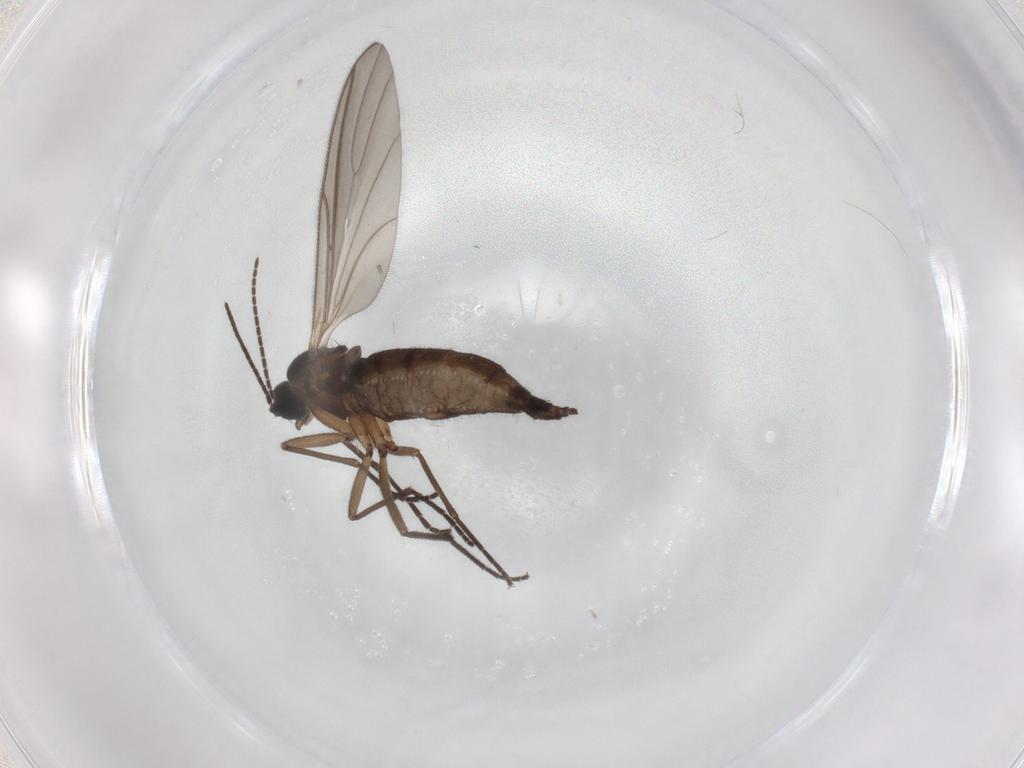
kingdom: Animalia
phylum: Arthropoda
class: Insecta
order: Diptera
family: Sciaridae
